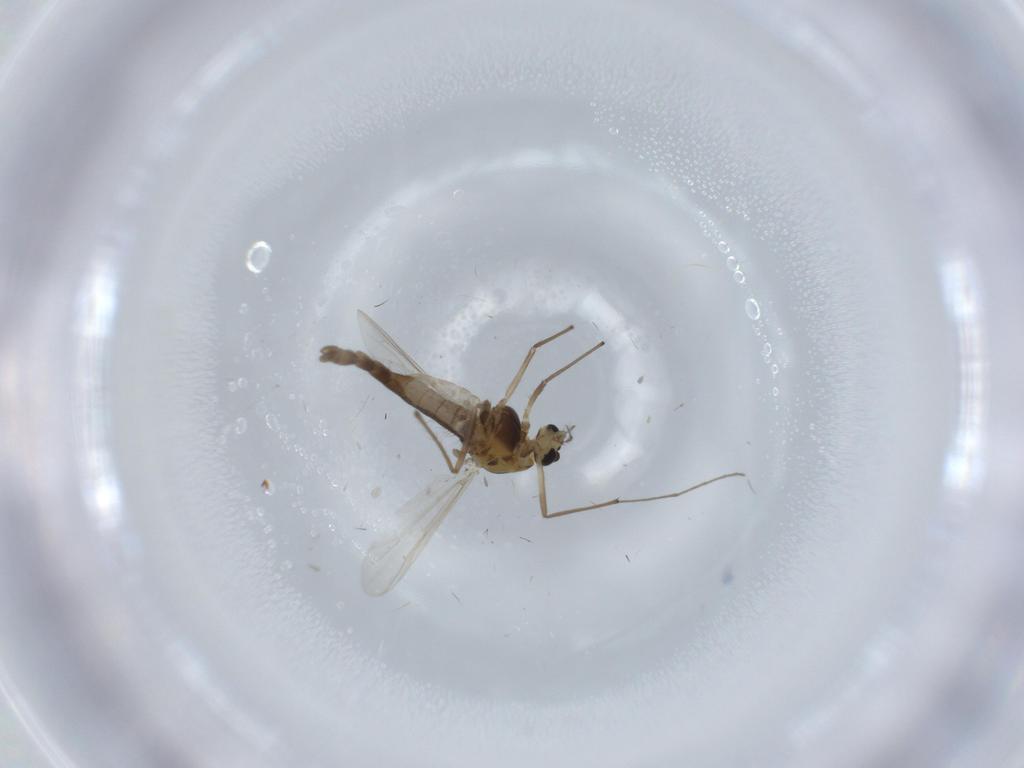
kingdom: Animalia
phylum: Arthropoda
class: Insecta
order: Diptera
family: Chironomidae
